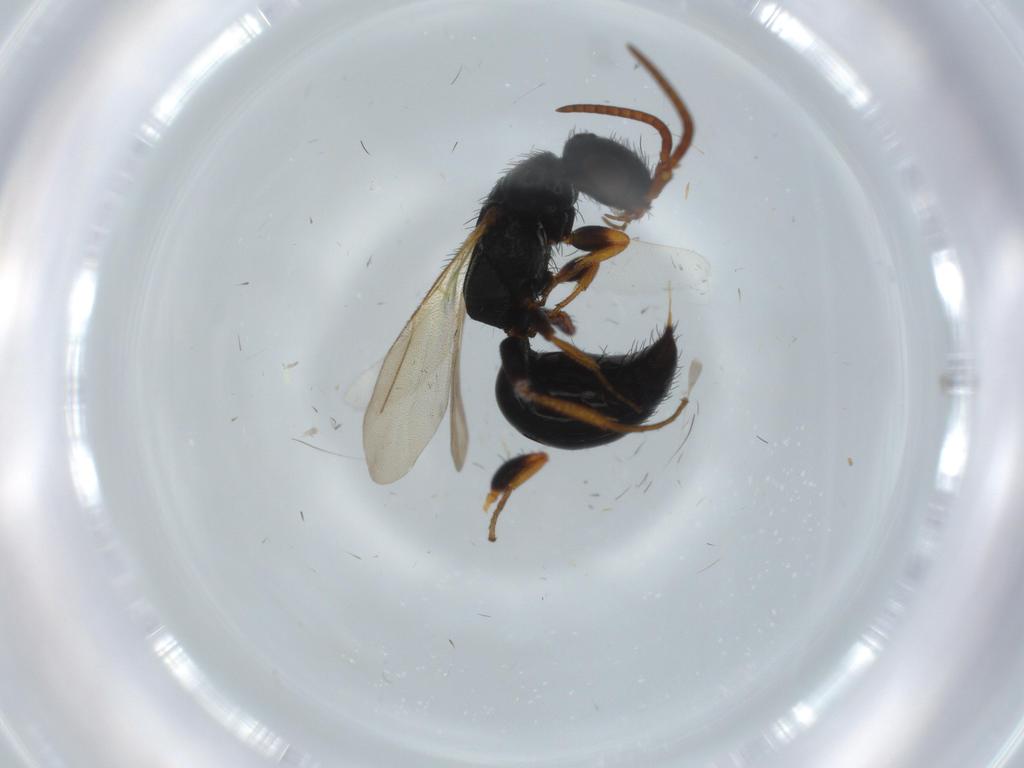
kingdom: Animalia
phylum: Arthropoda
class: Insecta
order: Hymenoptera
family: Bethylidae
